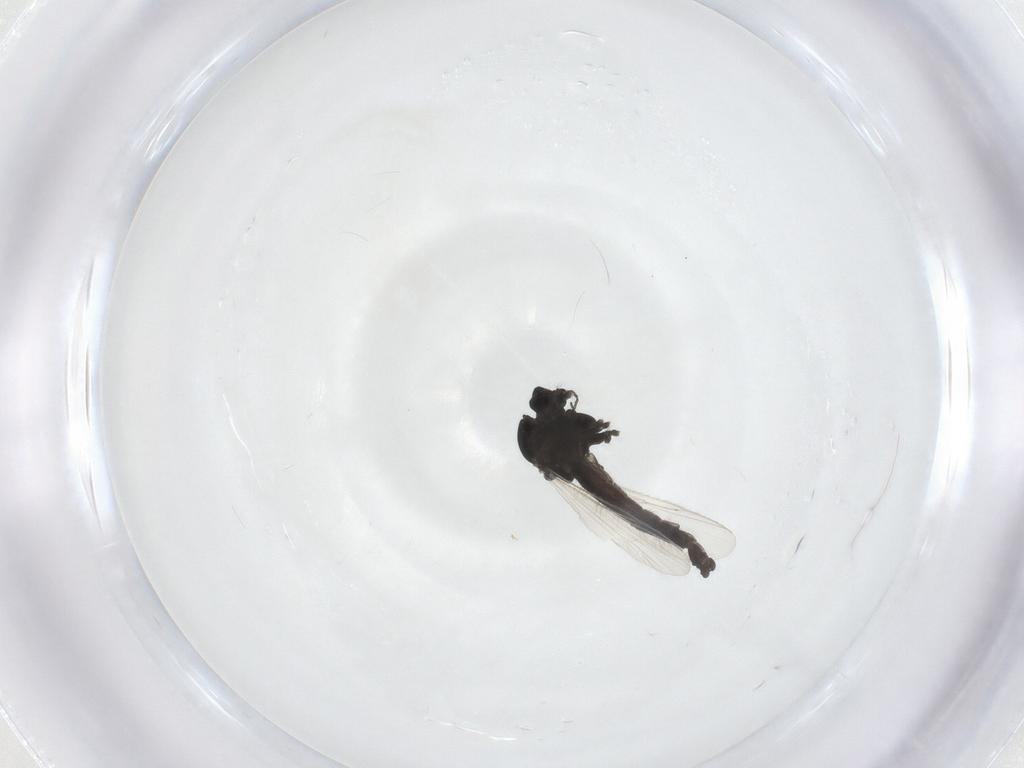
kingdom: Animalia
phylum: Arthropoda
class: Insecta
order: Diptera
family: Chironomidae
